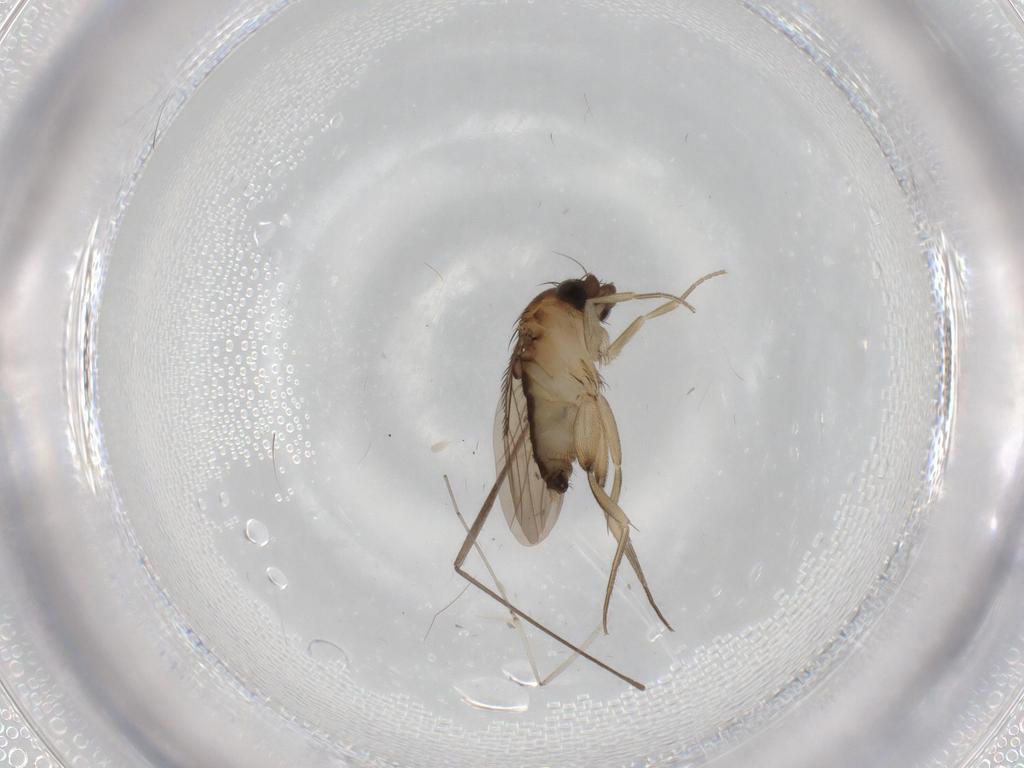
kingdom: Animalia
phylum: Arthropoda
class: Insecta
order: Diptera
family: Phoridae
